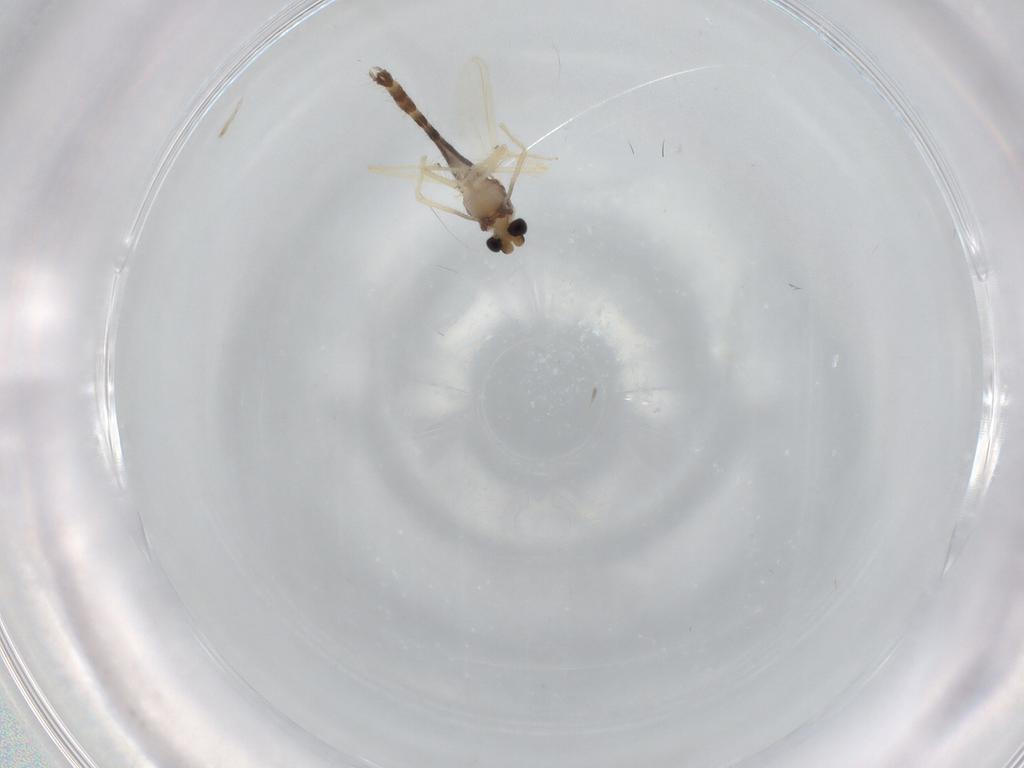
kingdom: Animalia
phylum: Arthropoda
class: Insecta
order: Diptera
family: Chironomidae
